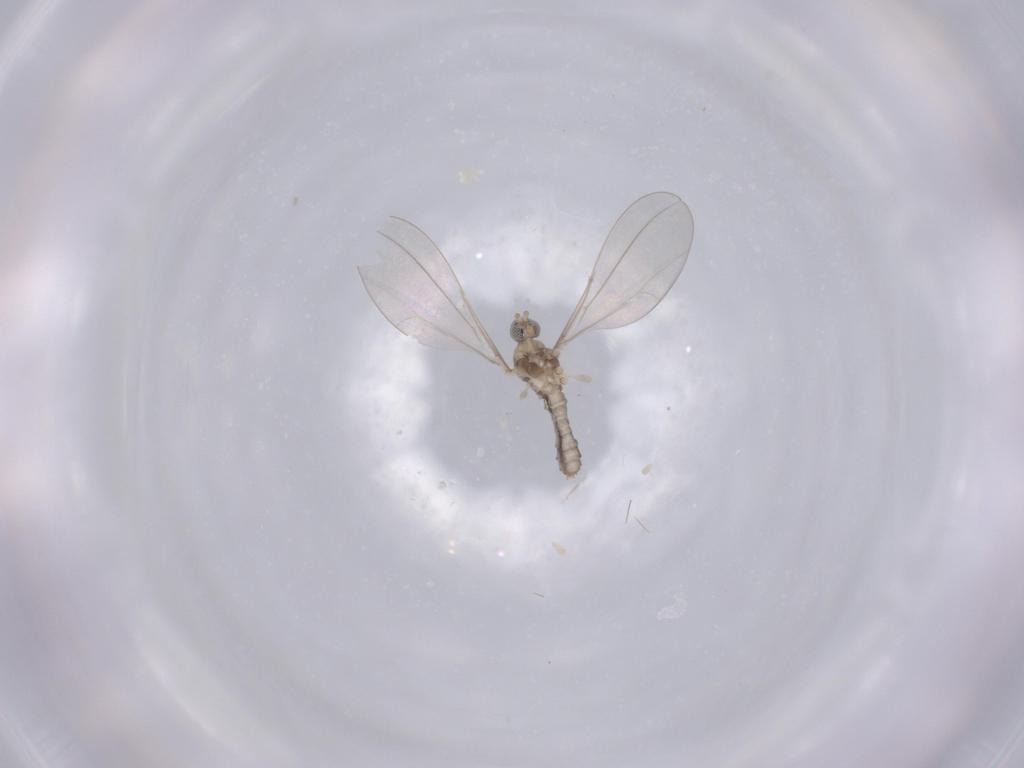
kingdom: Animalia
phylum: Arthropoda
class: Insecta
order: Diptera
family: Cecidomyiidae
